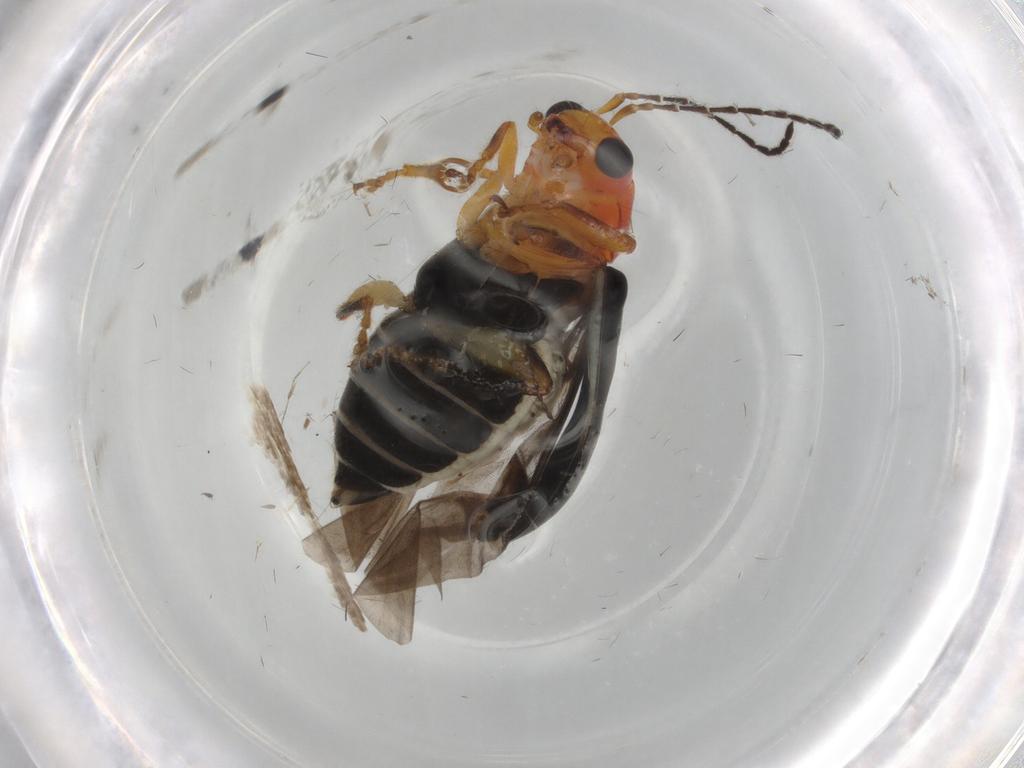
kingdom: Animalia
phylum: Arthropoda
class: Insecta
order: Coleoptera
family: Chrysomelidae
